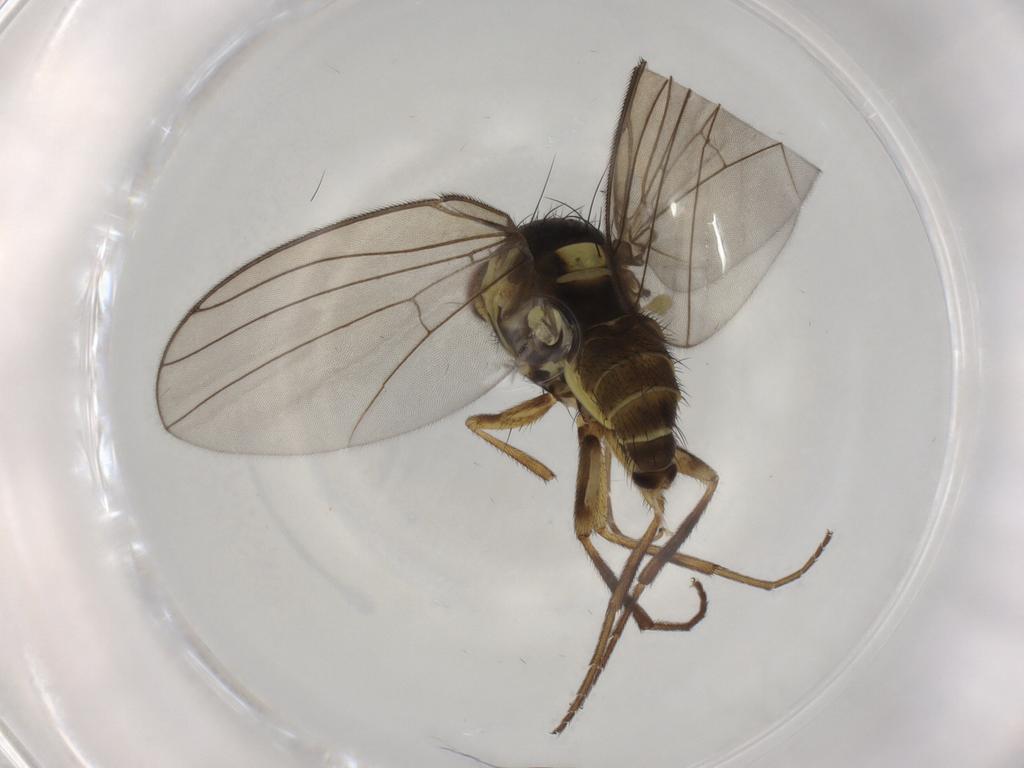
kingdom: Animalia
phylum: Arthropoda
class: Insecta
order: Diptera
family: Agromyzidae
